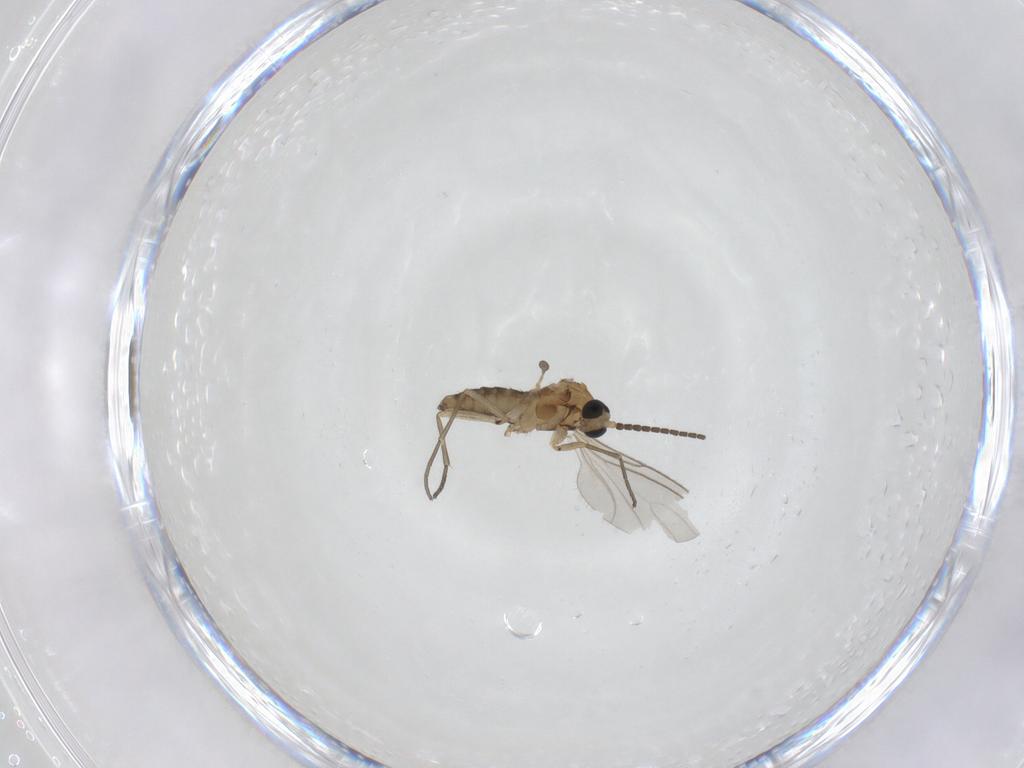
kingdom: Animalia
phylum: Arthropoda
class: Insecta
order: Diptera
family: Sciaridae
